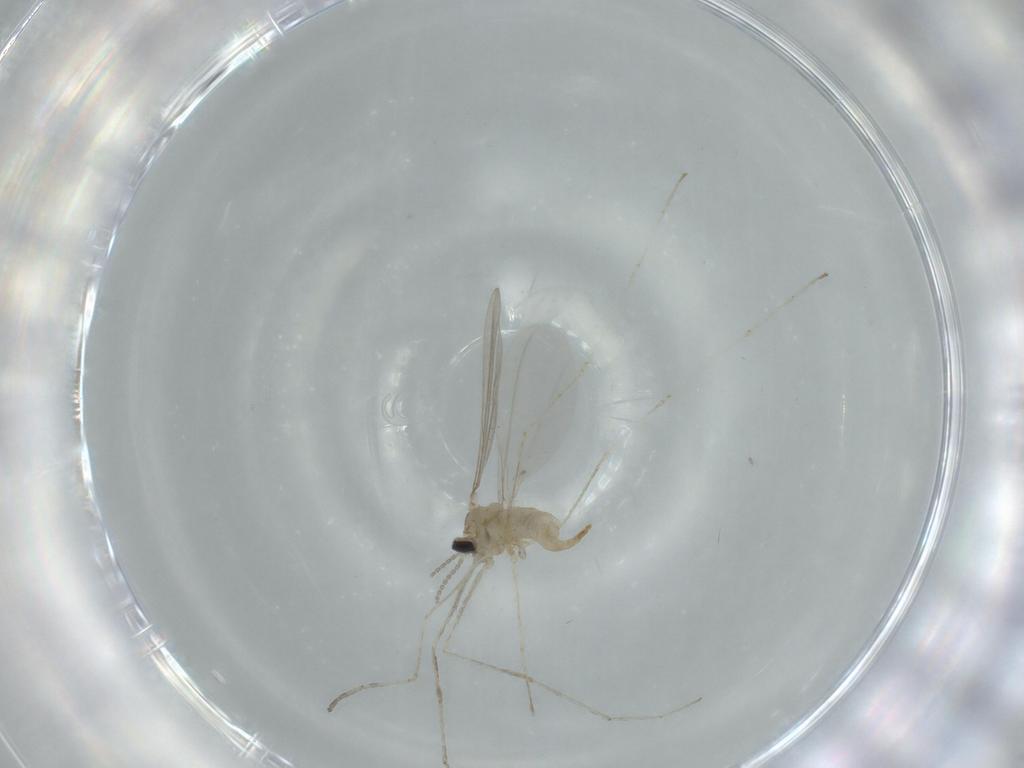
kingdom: Animalia
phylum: Arthropoda
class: Insecta
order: Diptera
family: Cecidomyiidae
